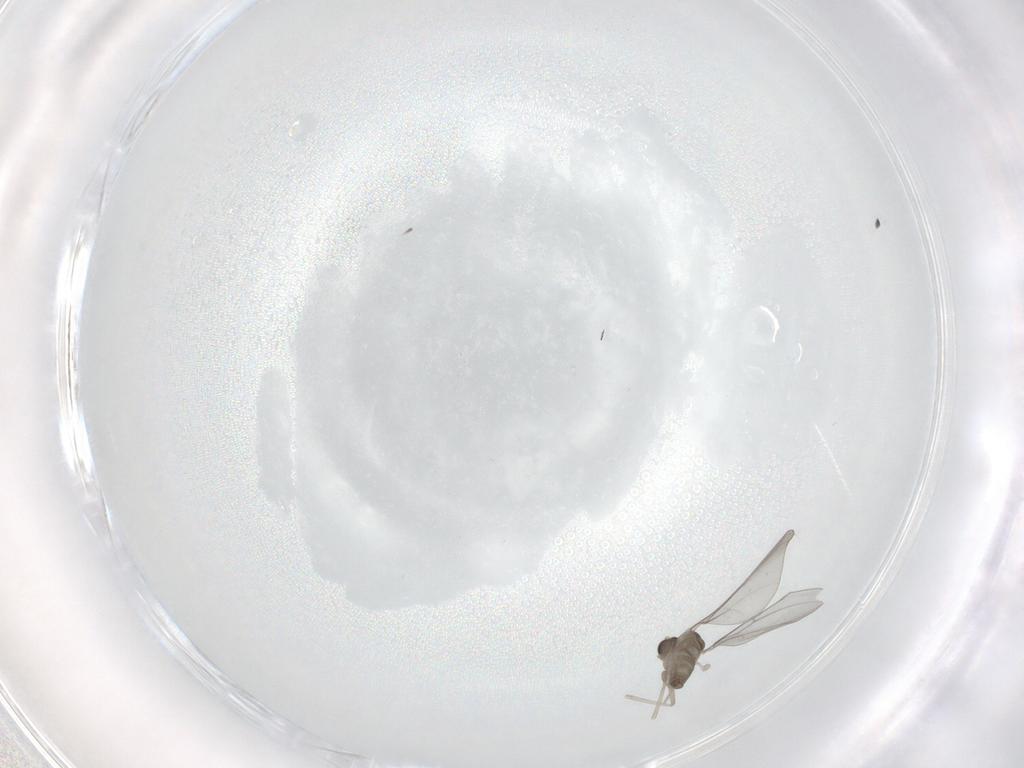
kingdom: Animalia
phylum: Arthropoda
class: Insecta
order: Diptera
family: Cecidomyiidae
